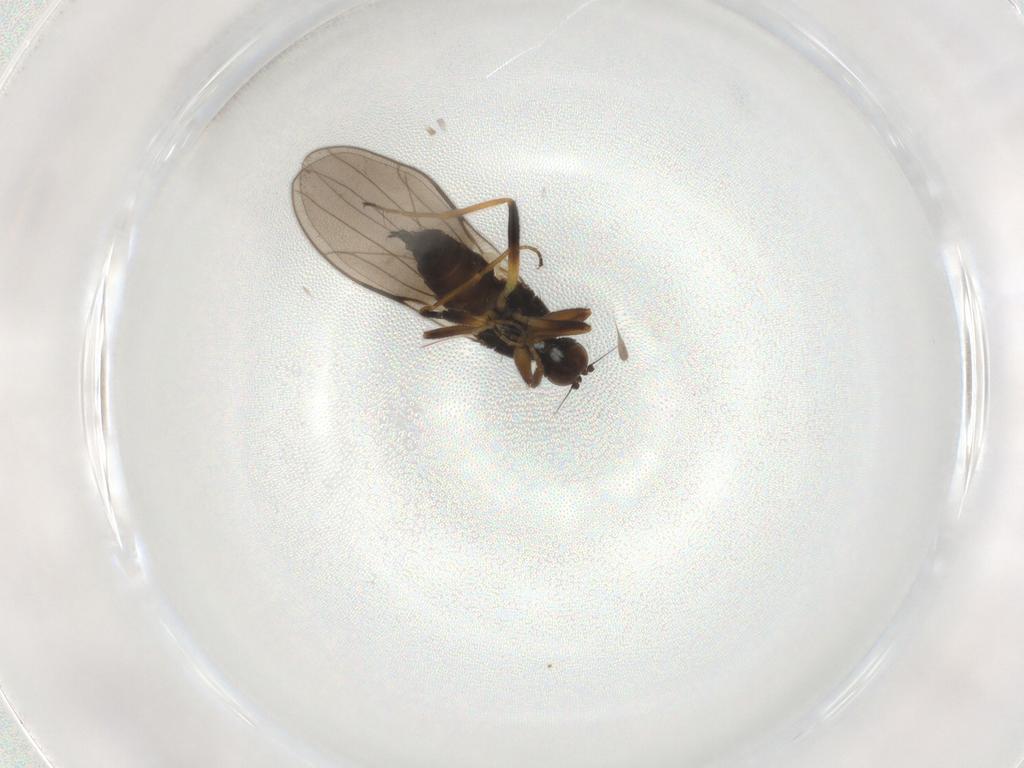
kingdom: Animalia
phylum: Arthropoda
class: Insecta
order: Diptera
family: Hybotidae
